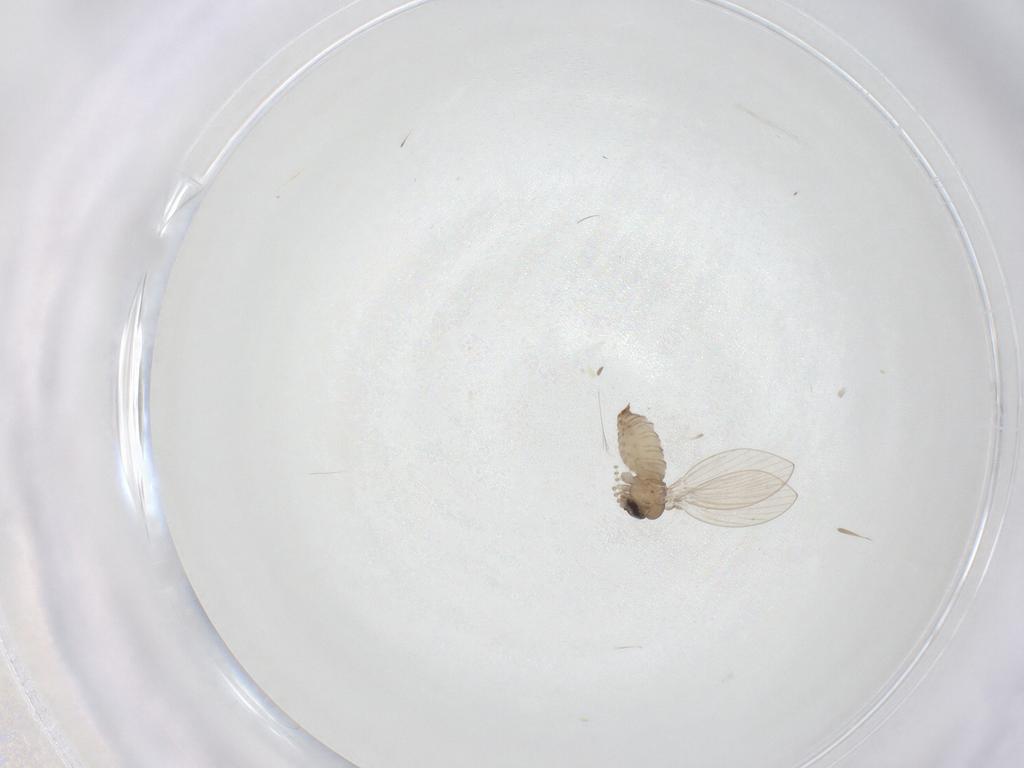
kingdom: Animalia
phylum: Arthropoda
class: Insecta
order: Diptera
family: Psychodidae
